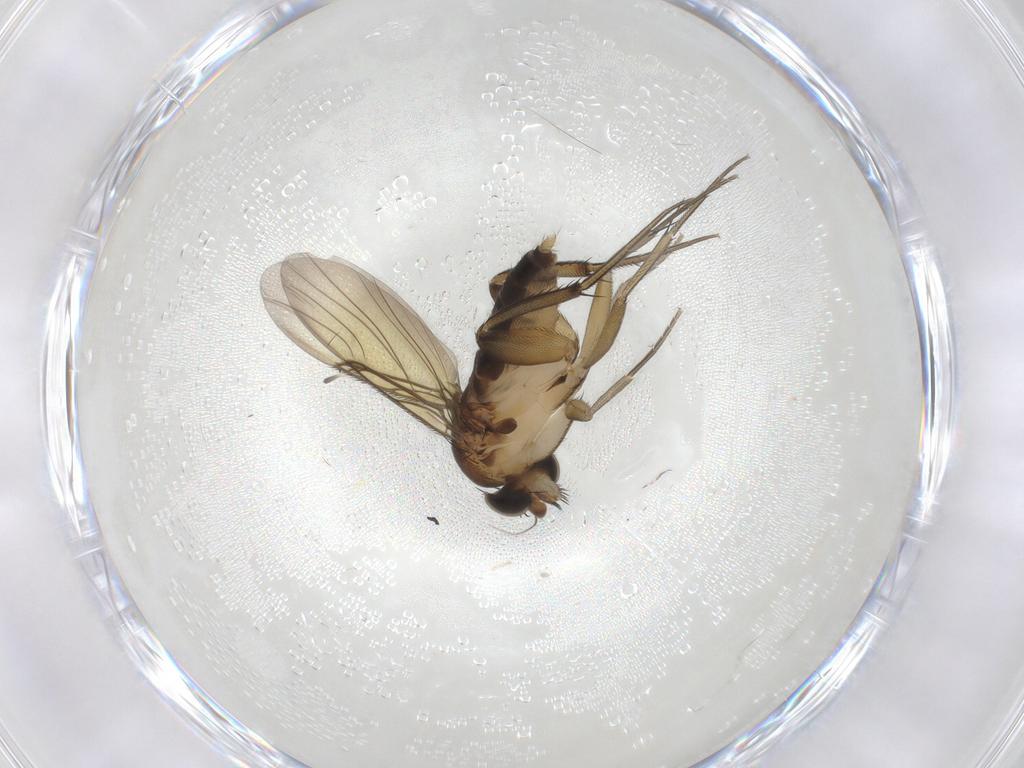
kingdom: Animalia
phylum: Arthropoda
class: Insecta
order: Diptera
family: Phoridae
